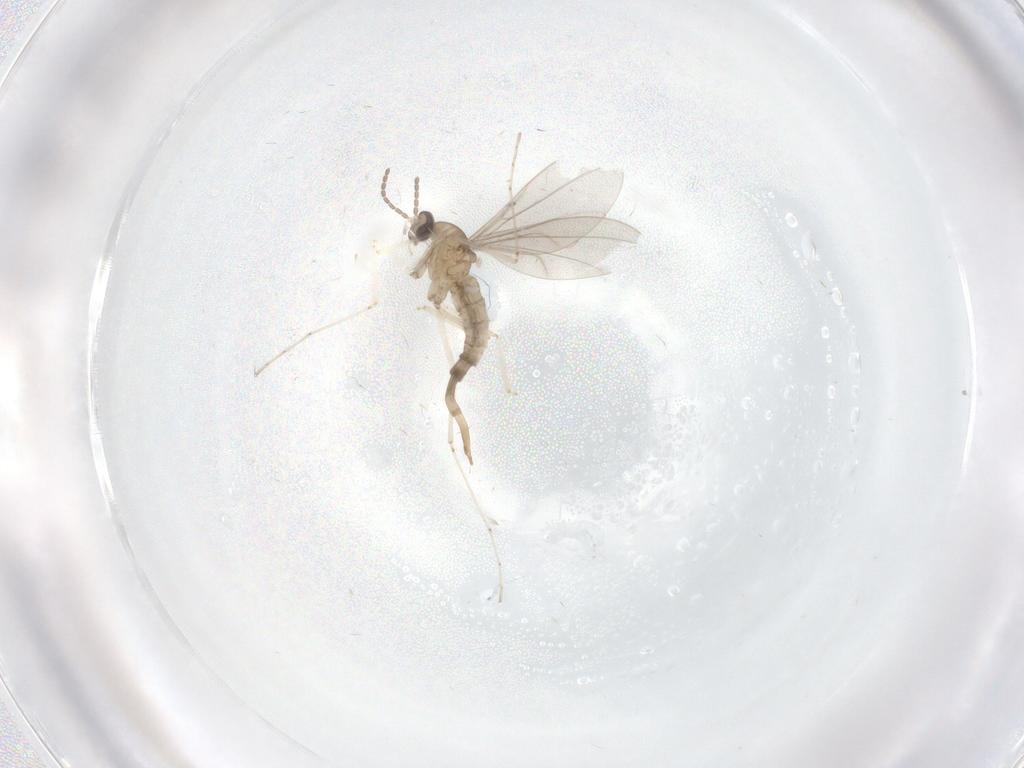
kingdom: Animalia
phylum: Arthropoda
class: Insecta
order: Diptera
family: Cecidomyiidae
